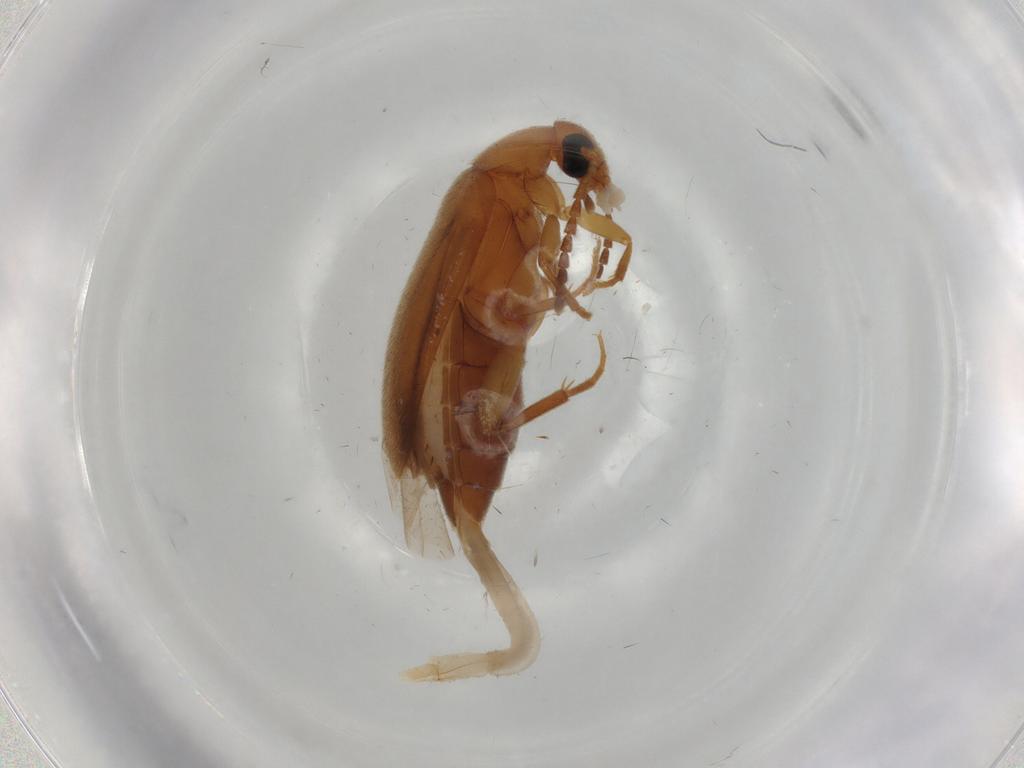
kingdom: Animalia
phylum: Arthropoda
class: Insecta
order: Coleoptera
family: Scraptiidae
